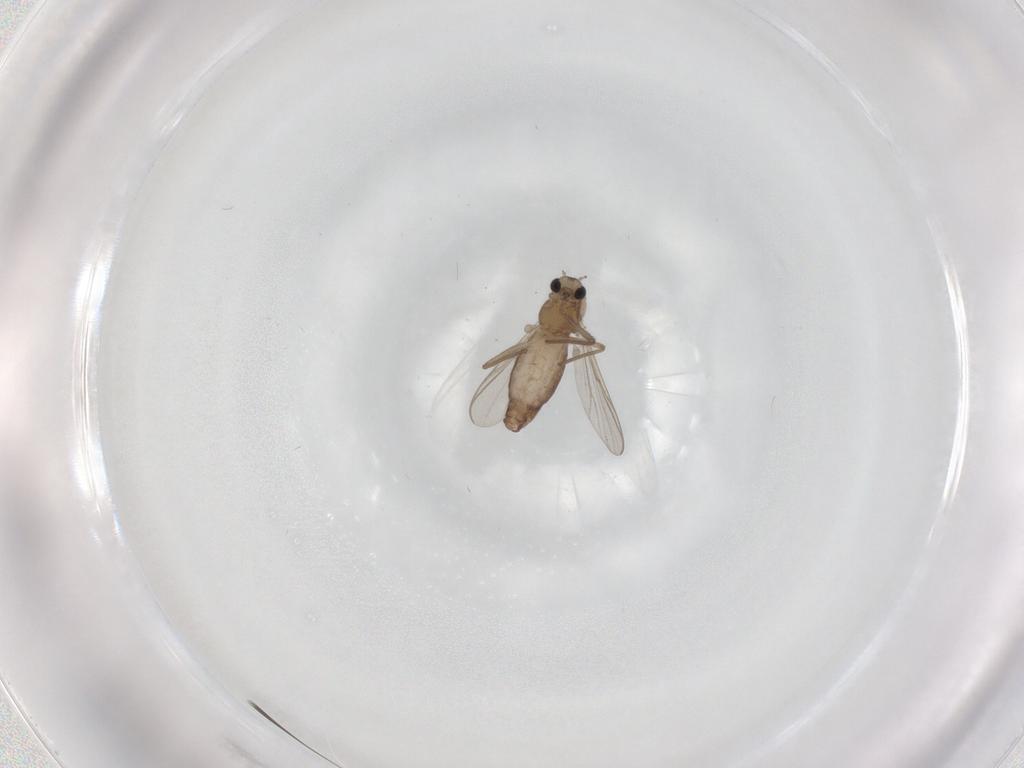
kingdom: Animalia
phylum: Arthropoda
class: Insecta
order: Diptera
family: Chironomidae
